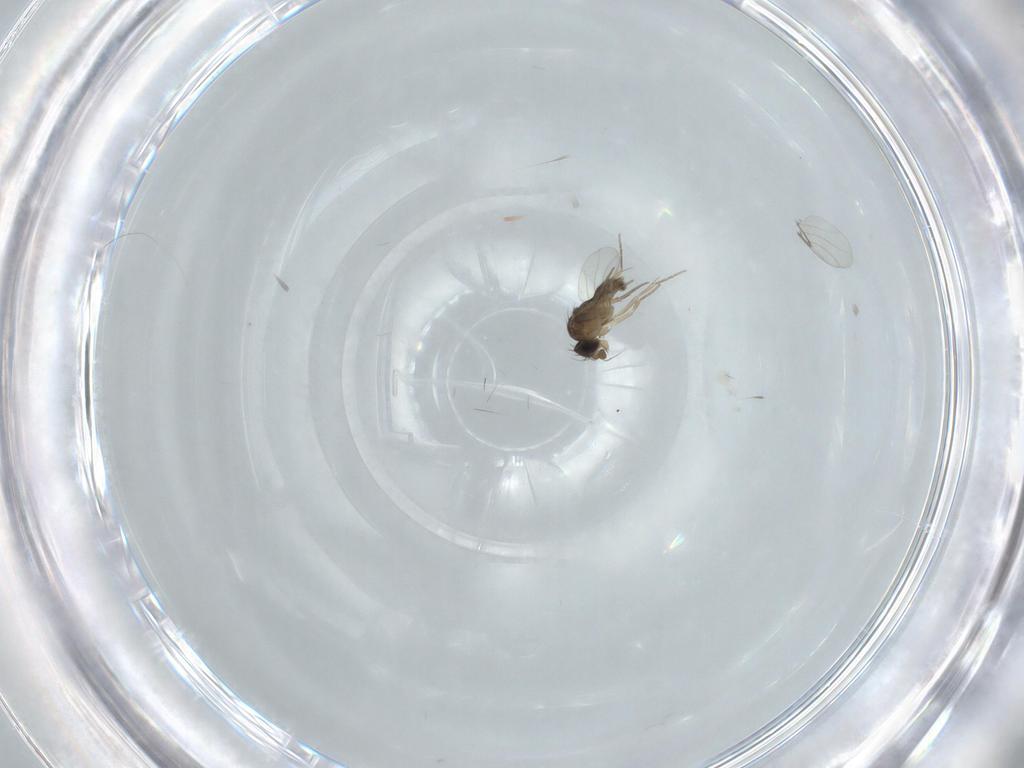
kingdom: Animalia
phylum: Arthropoda
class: Insecta
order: Diptera
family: Phoridae
